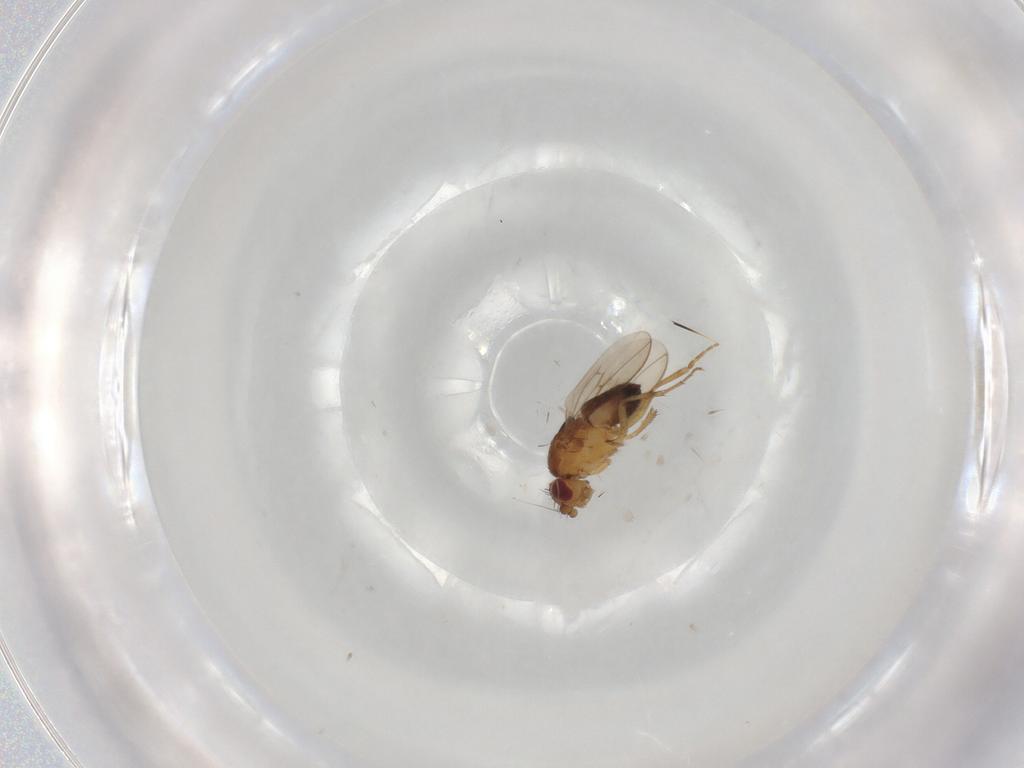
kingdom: Animalia
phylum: Arthropoda
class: Insecta
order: Diptera
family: Sphaeroceridae
